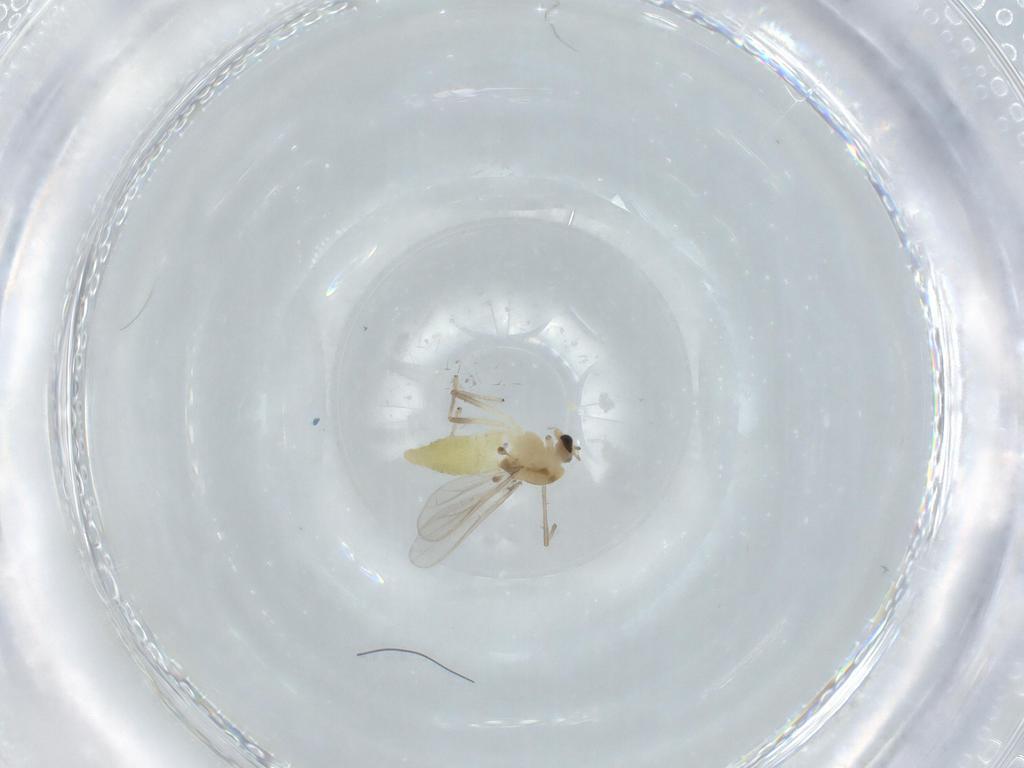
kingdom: Animalia
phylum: Arthropoda
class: Insecta
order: Diptera
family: Chironomidae
